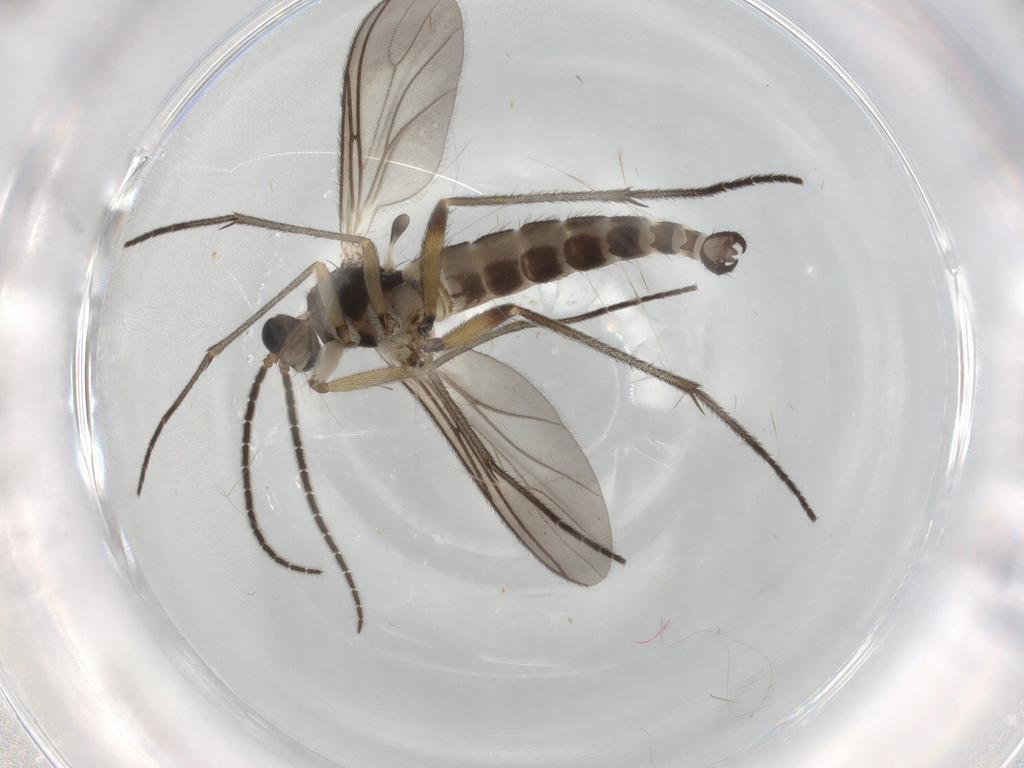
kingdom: Animalia
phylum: Arthropoda
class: Insecta
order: Diptera
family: Sciaridae
